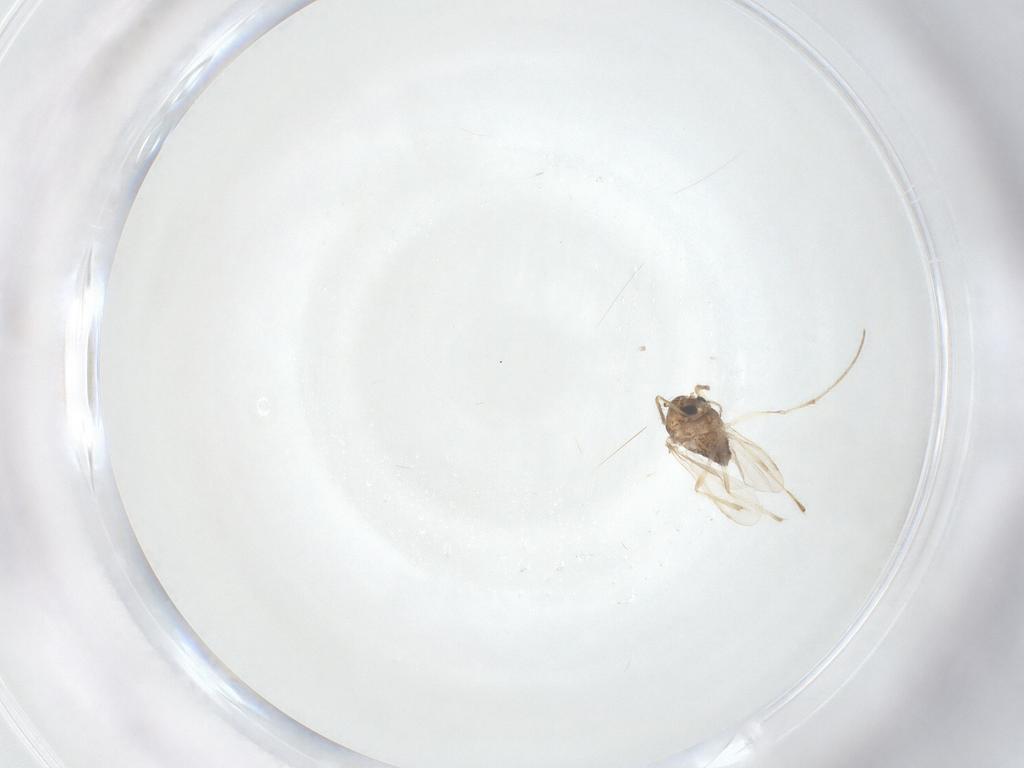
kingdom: Animalia
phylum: Arthropoda
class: Insecta
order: Diptera
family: Chironomidae
